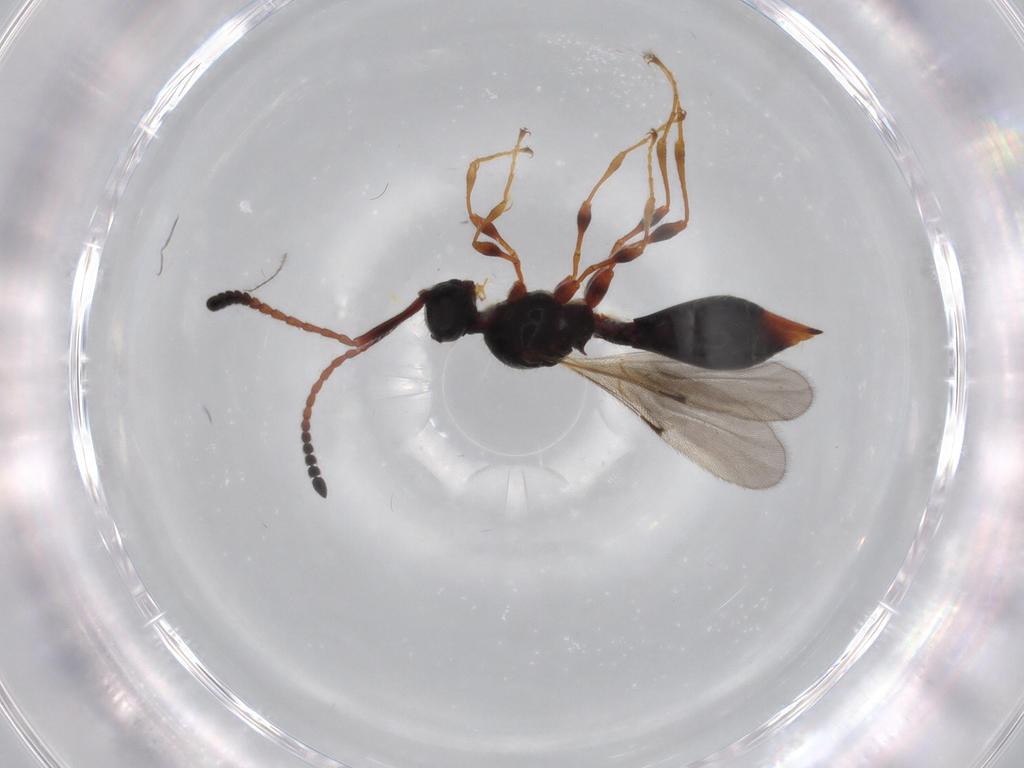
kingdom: Animalia
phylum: Arthropoda
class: Insecta
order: Hymenoptera
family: Diapriidae
